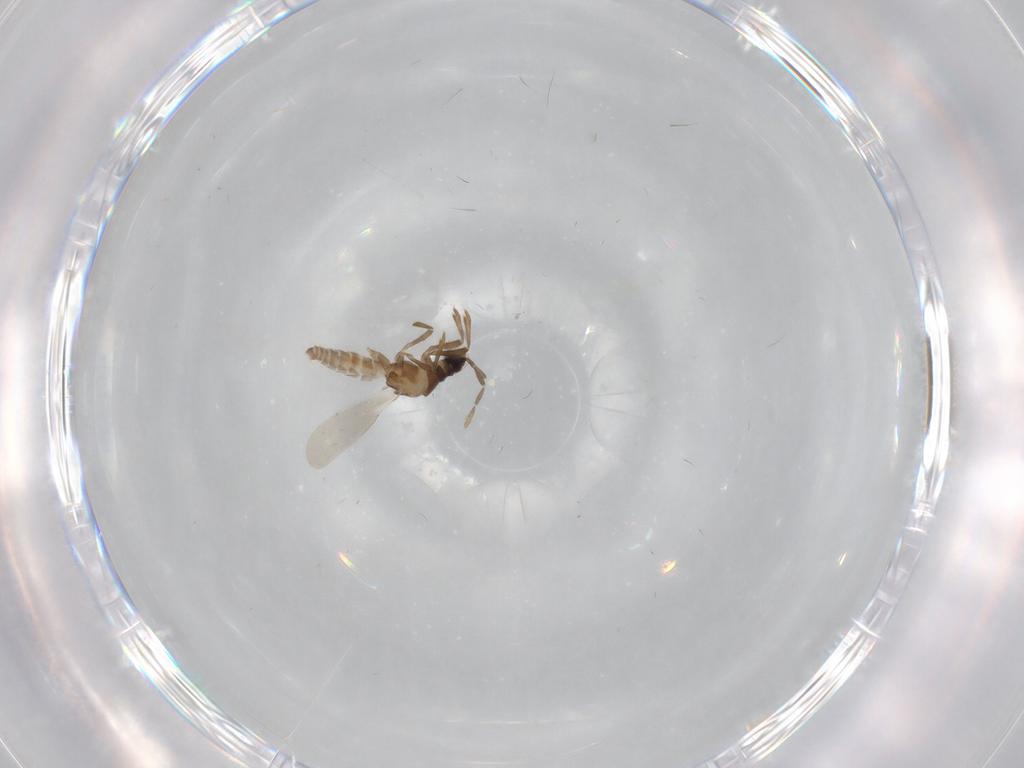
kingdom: Animalia
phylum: Arthropoda
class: Insecta
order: Hemiptera
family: Enicocephalidae
